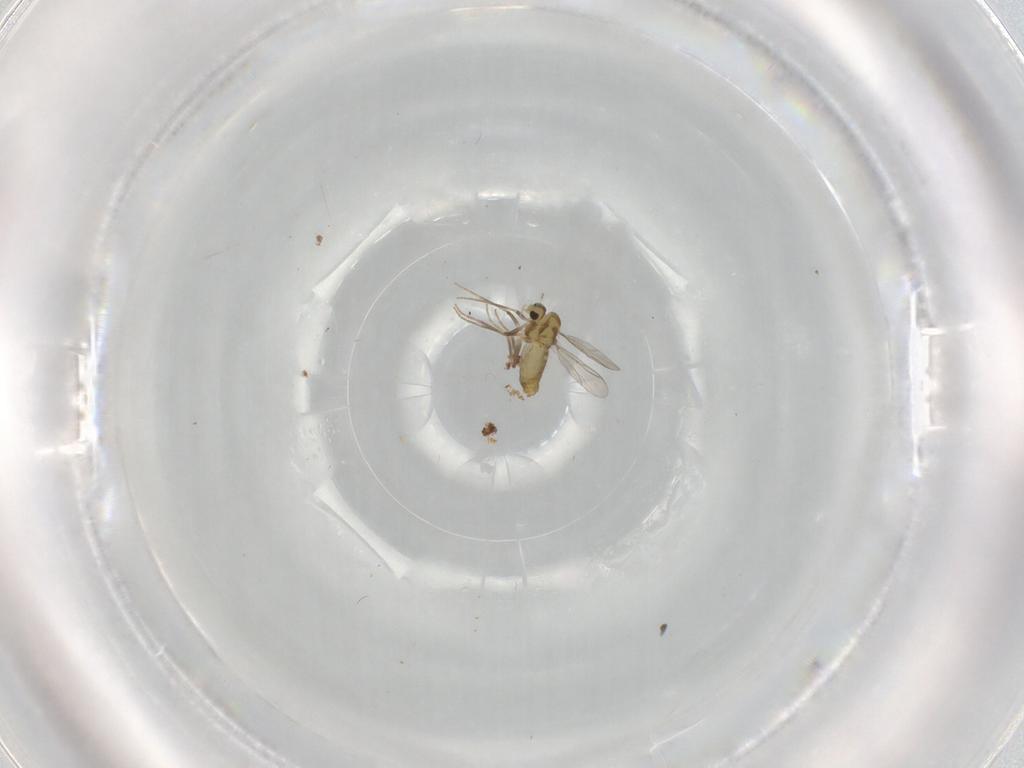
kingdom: Animalia
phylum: Arthropoda
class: Insecta
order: Diptera
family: Chironomidae
